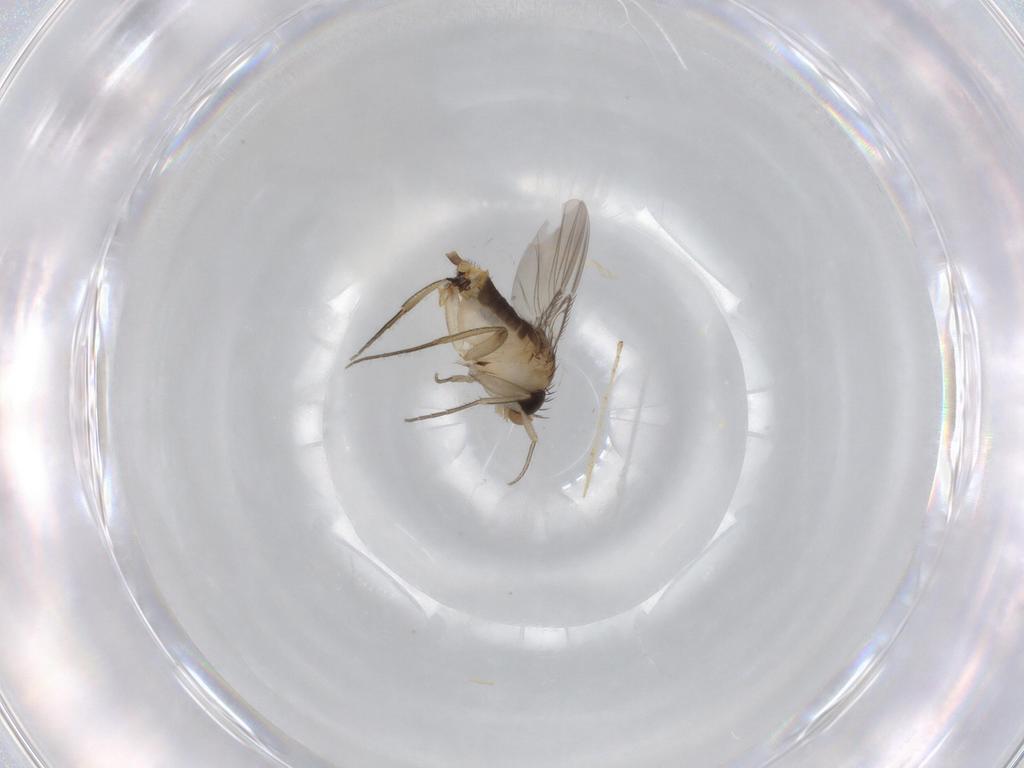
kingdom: Animalia
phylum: Arthropoda
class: Insecta
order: Diptera
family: Phoridae
